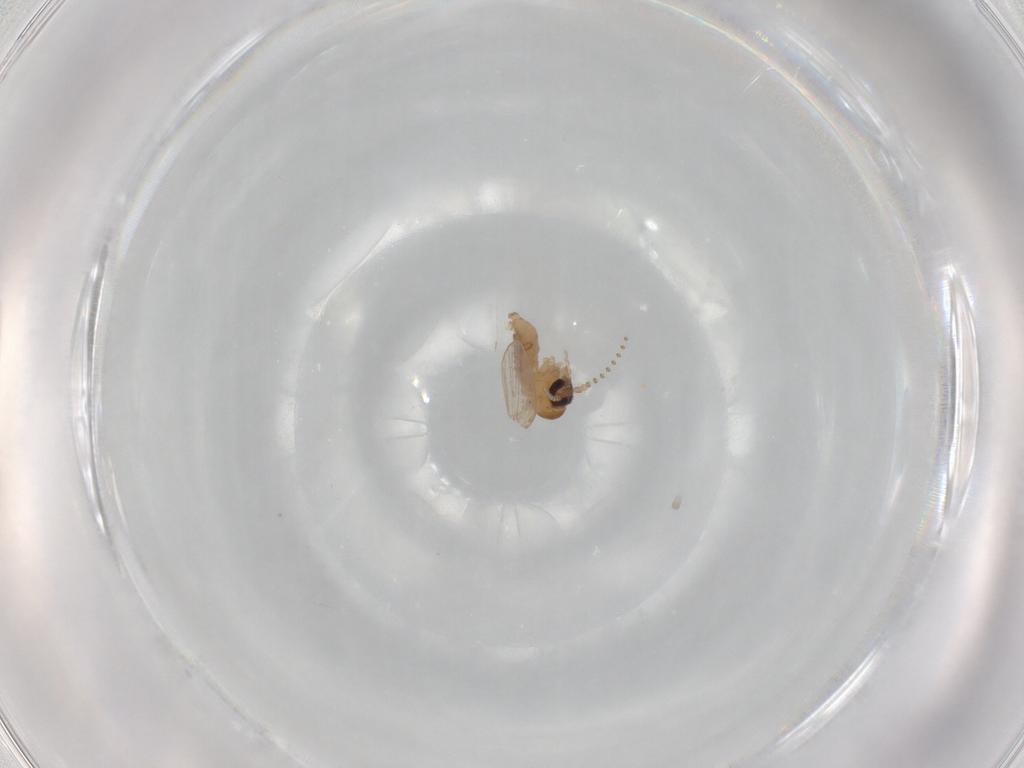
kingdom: Animalia
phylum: Arthropoda
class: Insecta
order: Diptera
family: Psychodidae
